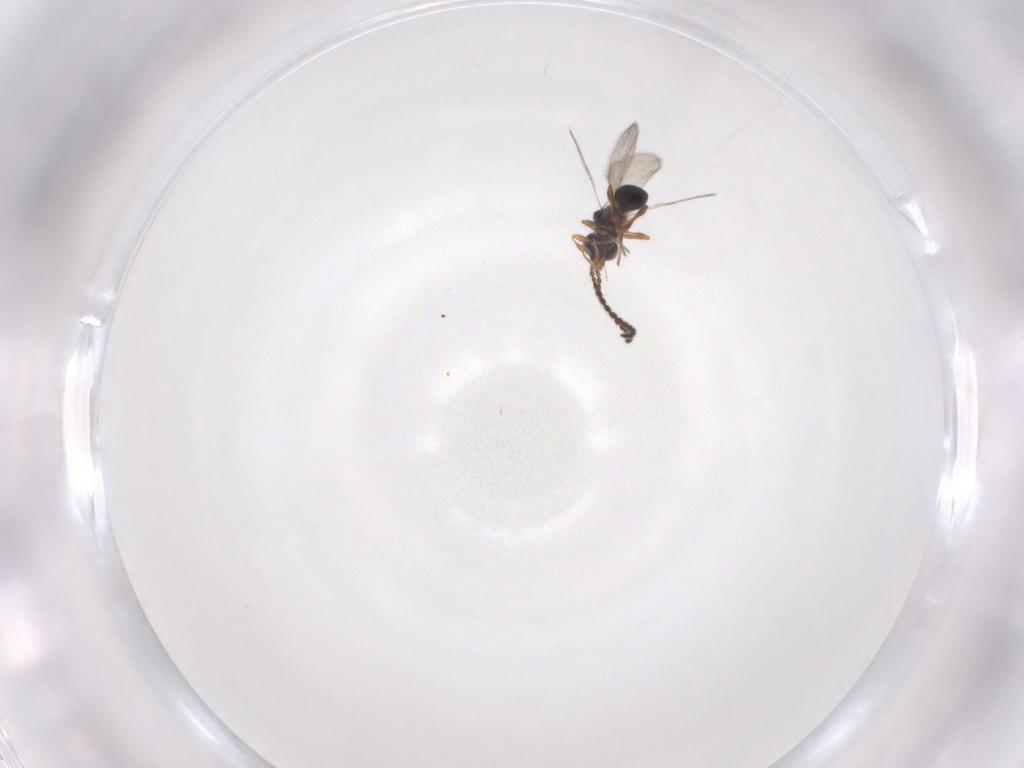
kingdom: Animalia
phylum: Arthropoda
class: Insecta
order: Hymenoptera
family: Diapriidae
